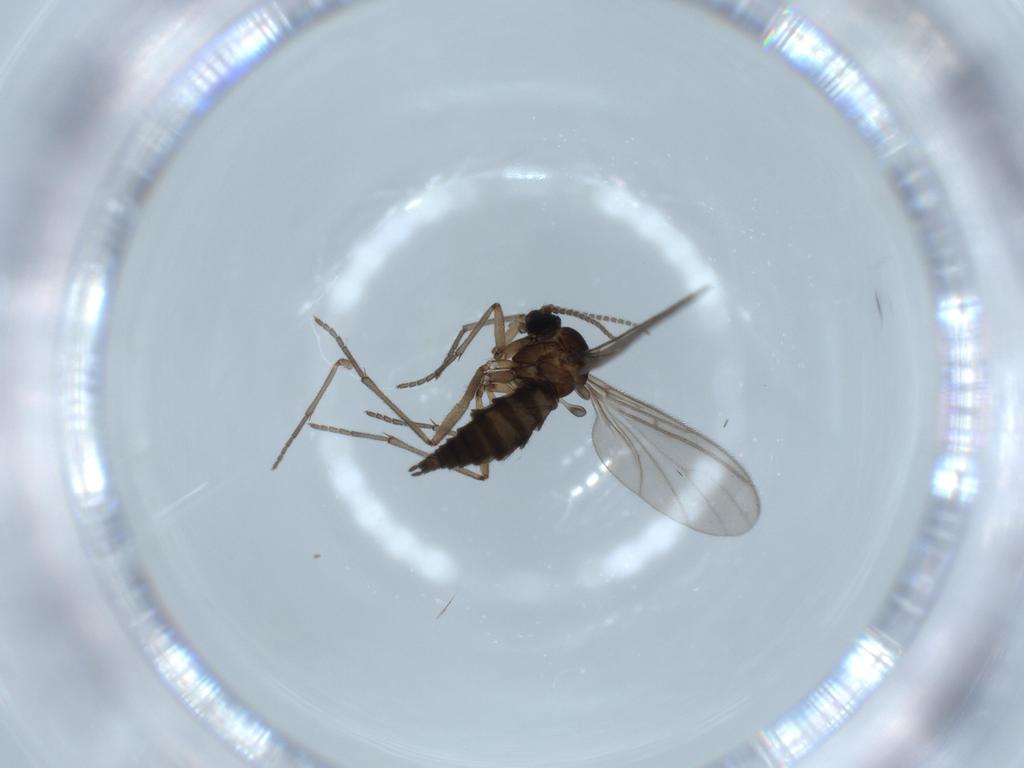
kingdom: Animalia
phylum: Arthropoda
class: Insecta
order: Diptera
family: Sciaridae
